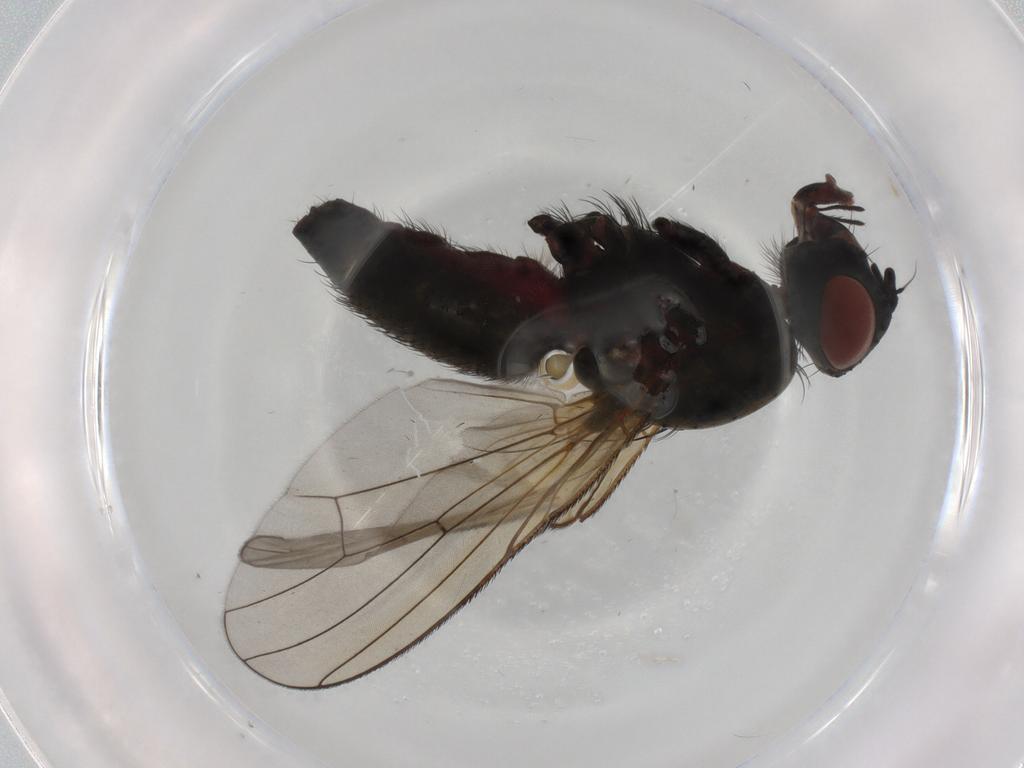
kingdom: Animalia
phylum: Arthropoda
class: Insecta
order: Diptera
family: Anthomyiidae
